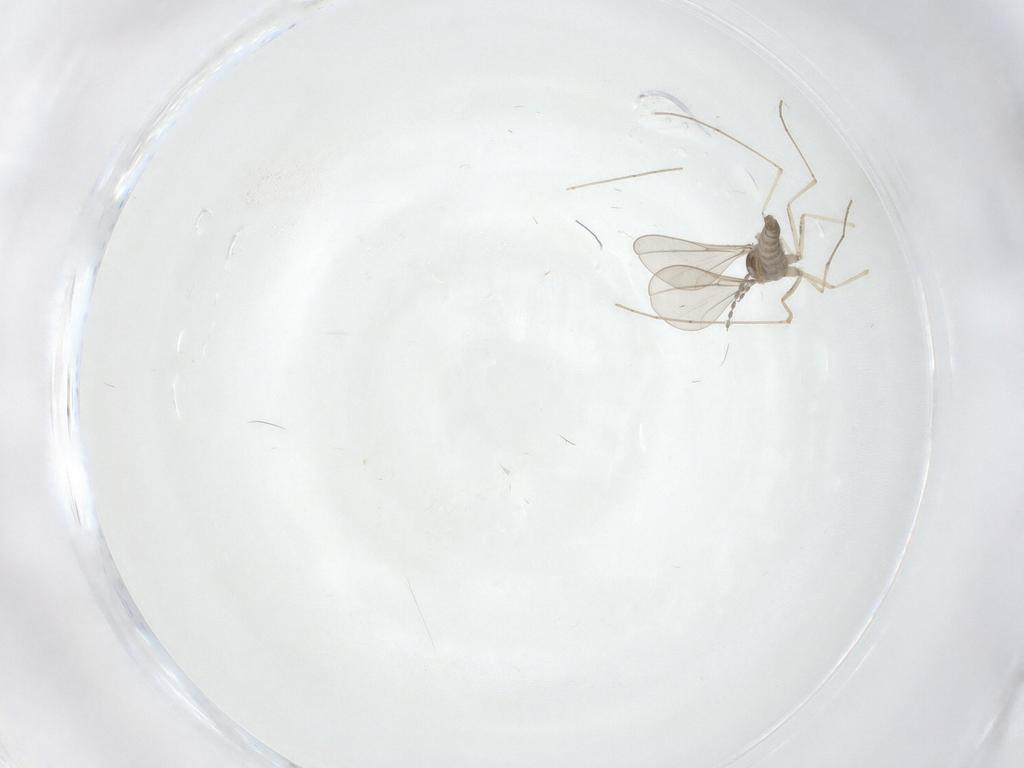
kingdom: Animalia
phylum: Arthropoda
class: Insecta
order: Diptera
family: Cecidomyiidae
